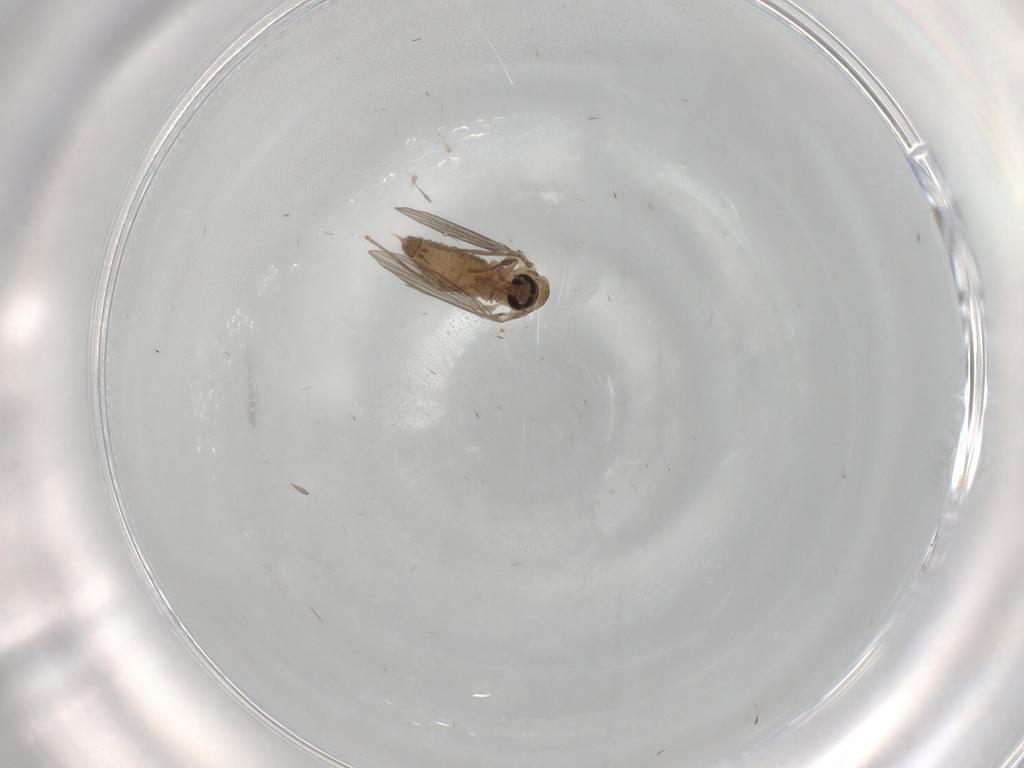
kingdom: Animalia
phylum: Arthropoda
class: Insecta
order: Diptera
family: Psychodidae
